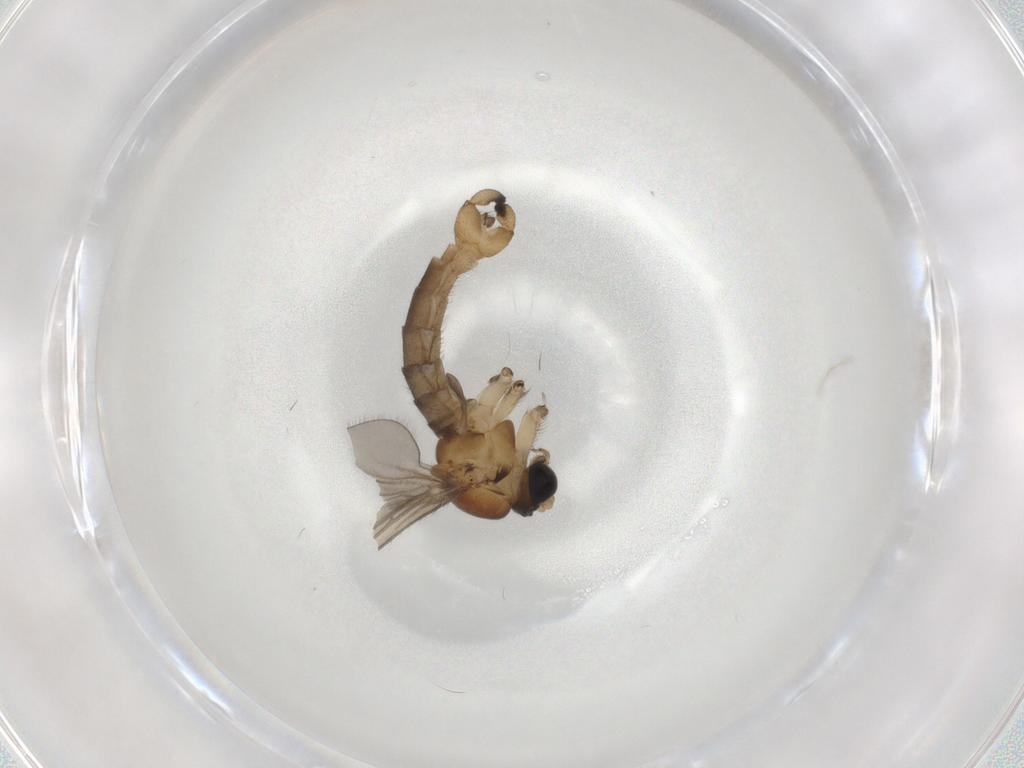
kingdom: Animalia
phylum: Arthropoda
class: Insecta
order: Diptera
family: Sciaridae
